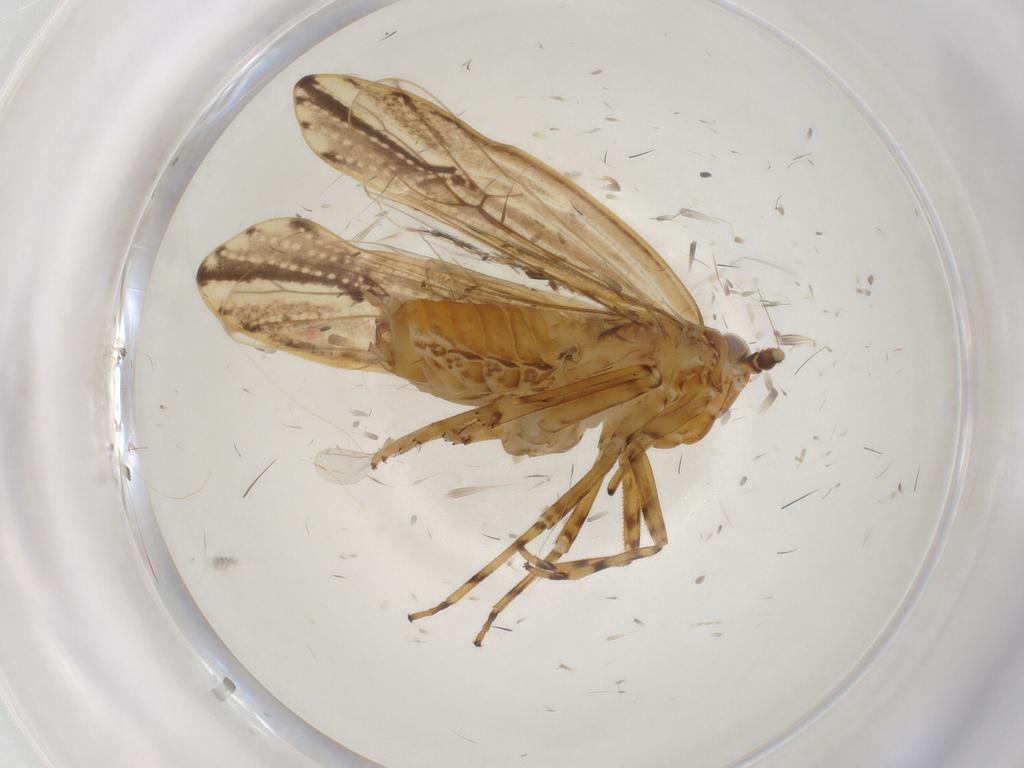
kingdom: Animalia
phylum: Arthropoda
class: Insecta
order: Hemiptera
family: Delphacidae
